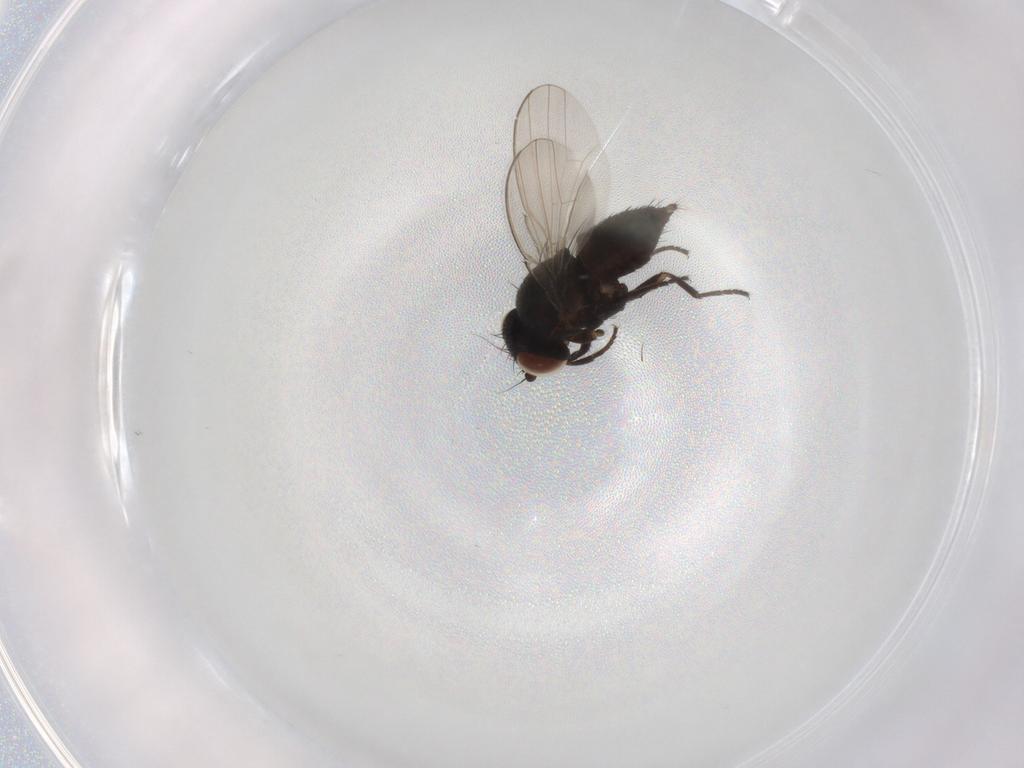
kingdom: Animalia
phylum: Arthropoda
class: Insecta
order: Diptera
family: Milichiidae
